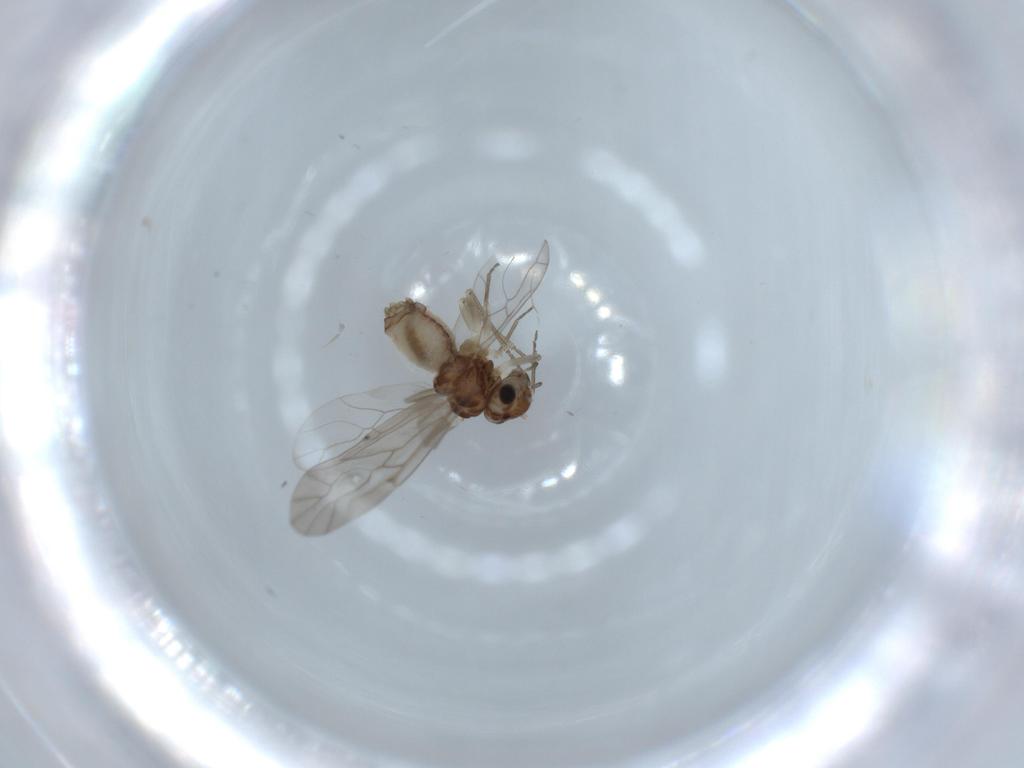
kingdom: Animalia
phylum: Arthropoda
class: Insecta
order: Psocodea
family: Lachesillidae
